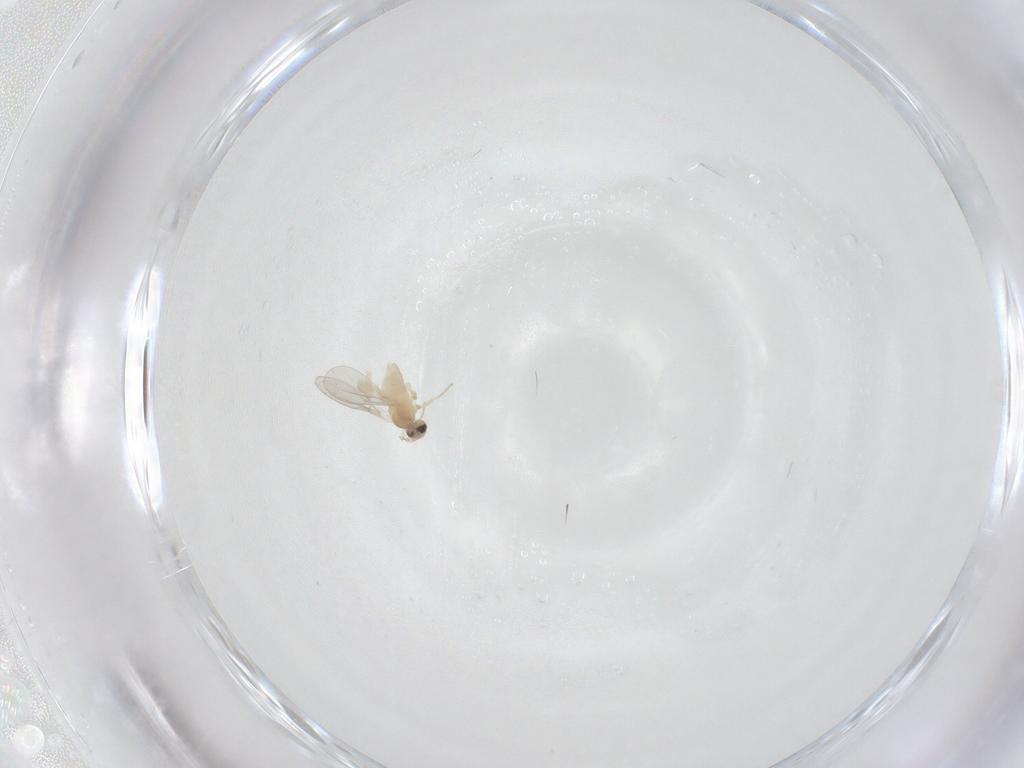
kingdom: Animalia
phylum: Arthropoda
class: Insecta
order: Diptera
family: Cecidomyiidae
